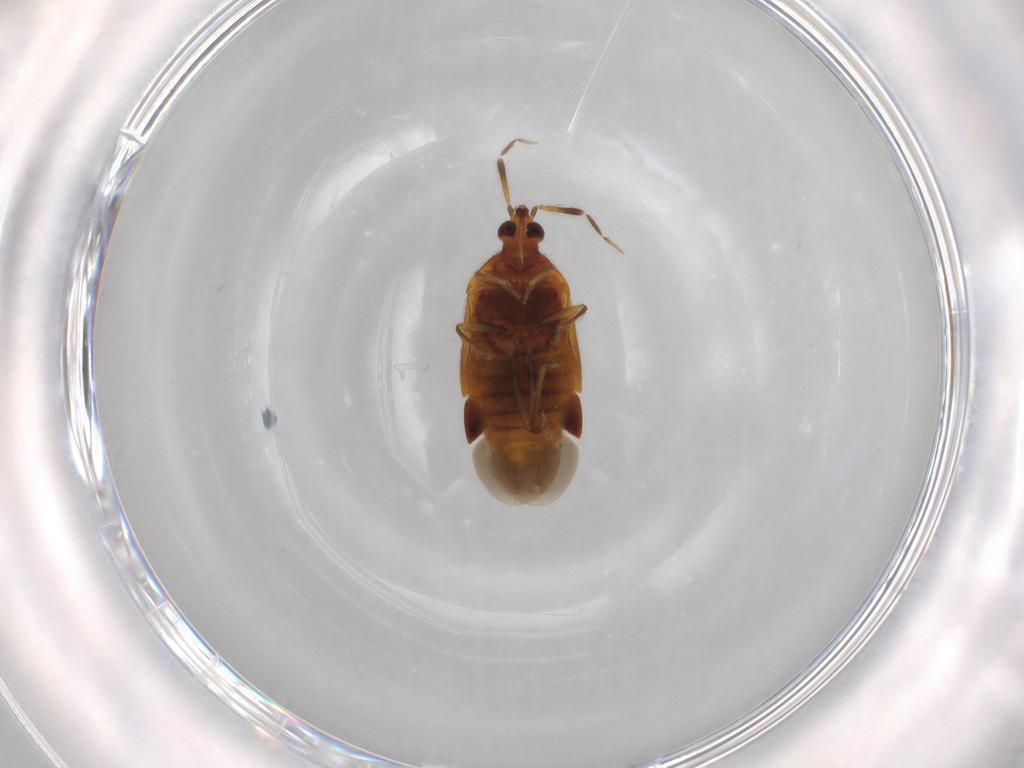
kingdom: Animalia
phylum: Arthropoda
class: Insecta
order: Hemiptera
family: Anthocoridae
